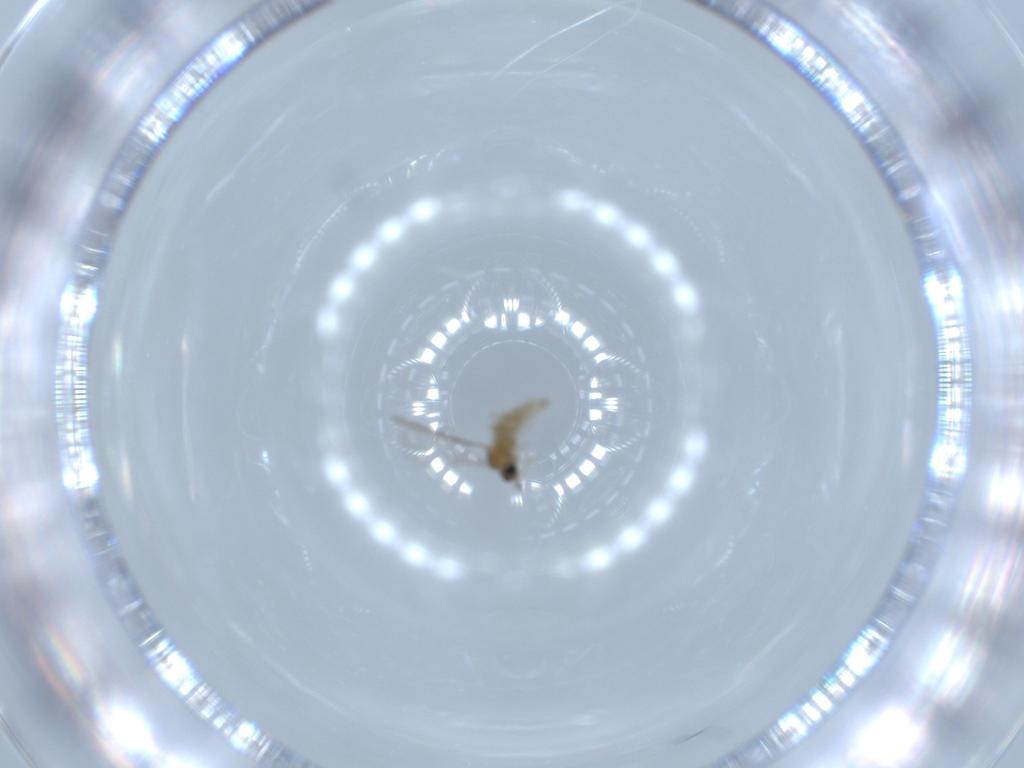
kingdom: Animalia
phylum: Arthropoda
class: Insecta
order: Diptera
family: Cecidomyiidae
